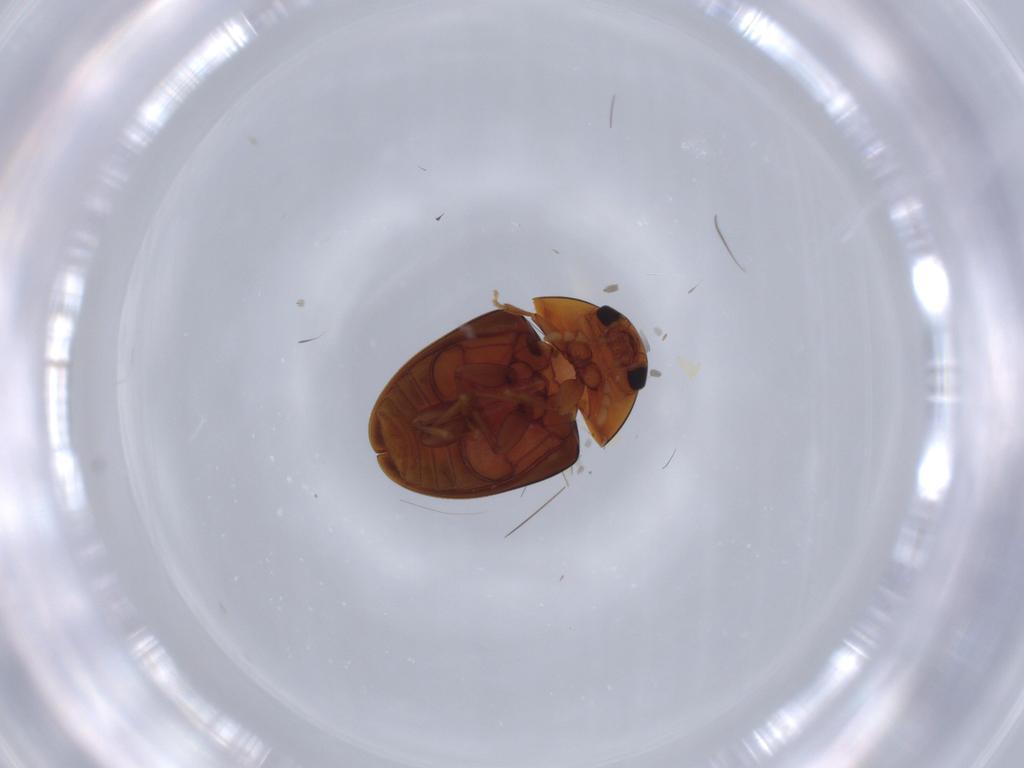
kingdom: Animalia
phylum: Arthropoda
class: Insecta
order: Coleoptera
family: Phalacridae
